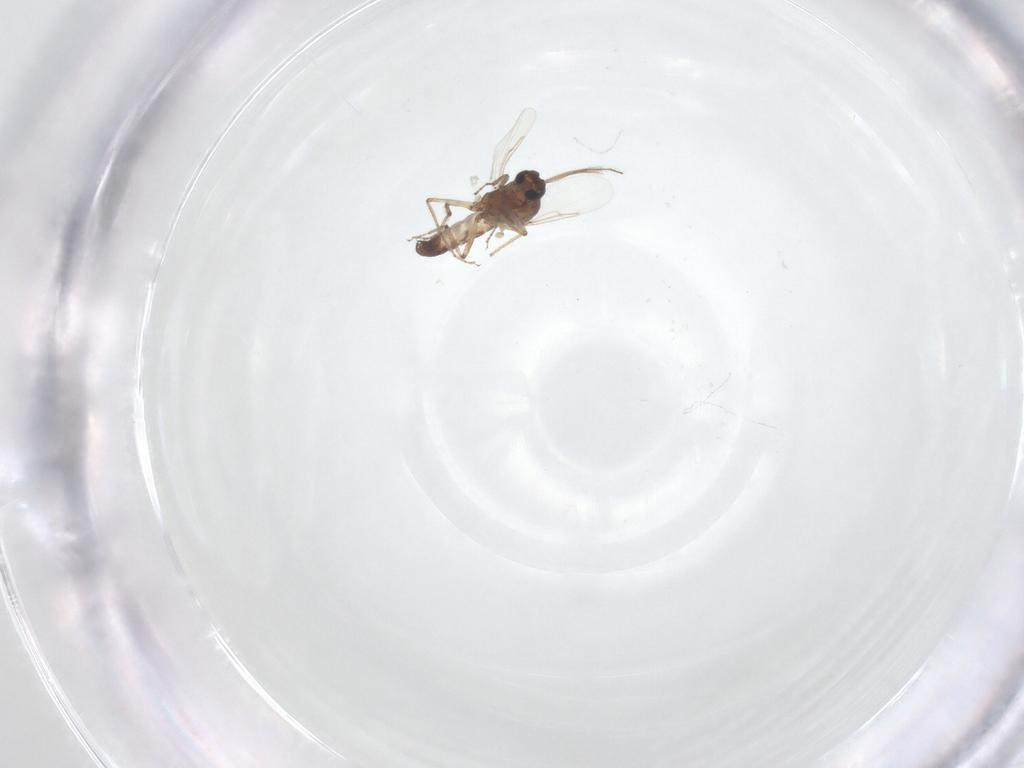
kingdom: Animalia
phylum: Arthropoda
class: Insecta
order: Diptera
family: Ceratopogonidae
